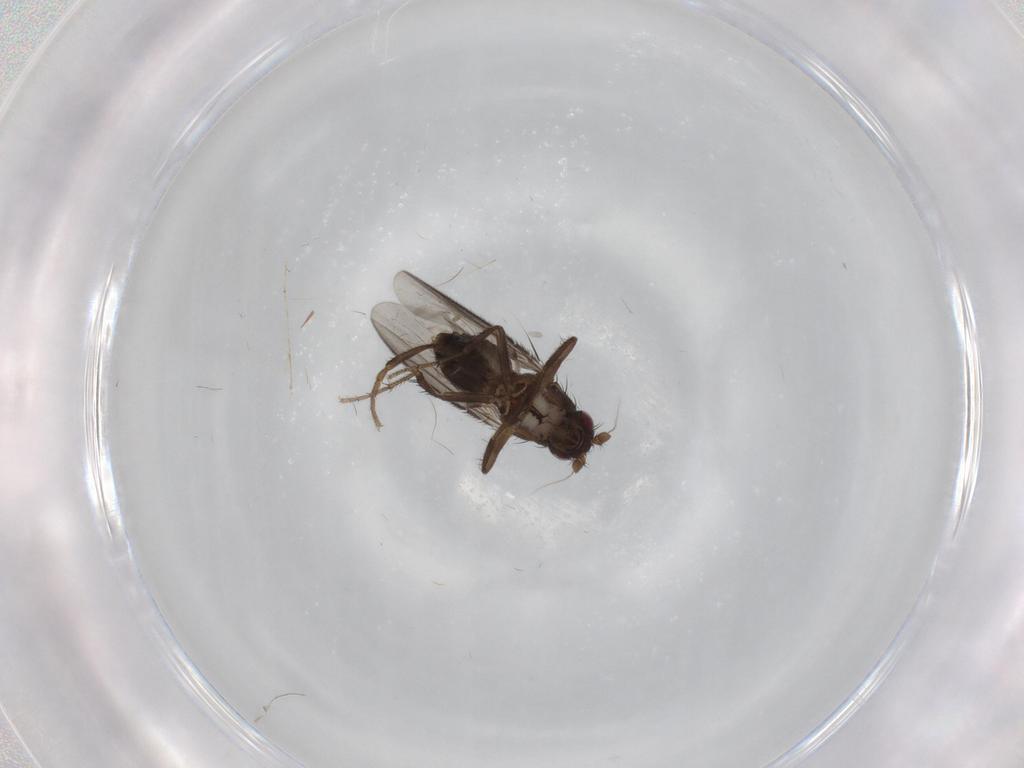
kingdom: Animalia
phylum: Arthropoda
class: Insecta
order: Diptera
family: Sphaeroceridae
